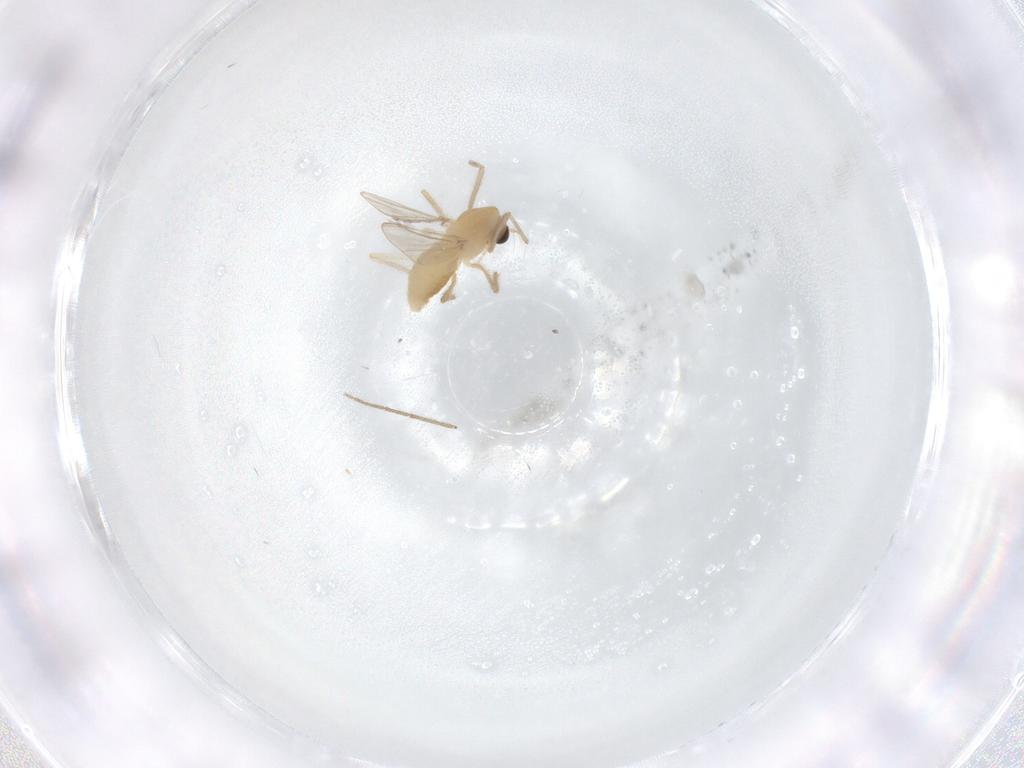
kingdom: Animalia
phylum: Arthropoda
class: Insecta
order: Diptera
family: Chironomidae
